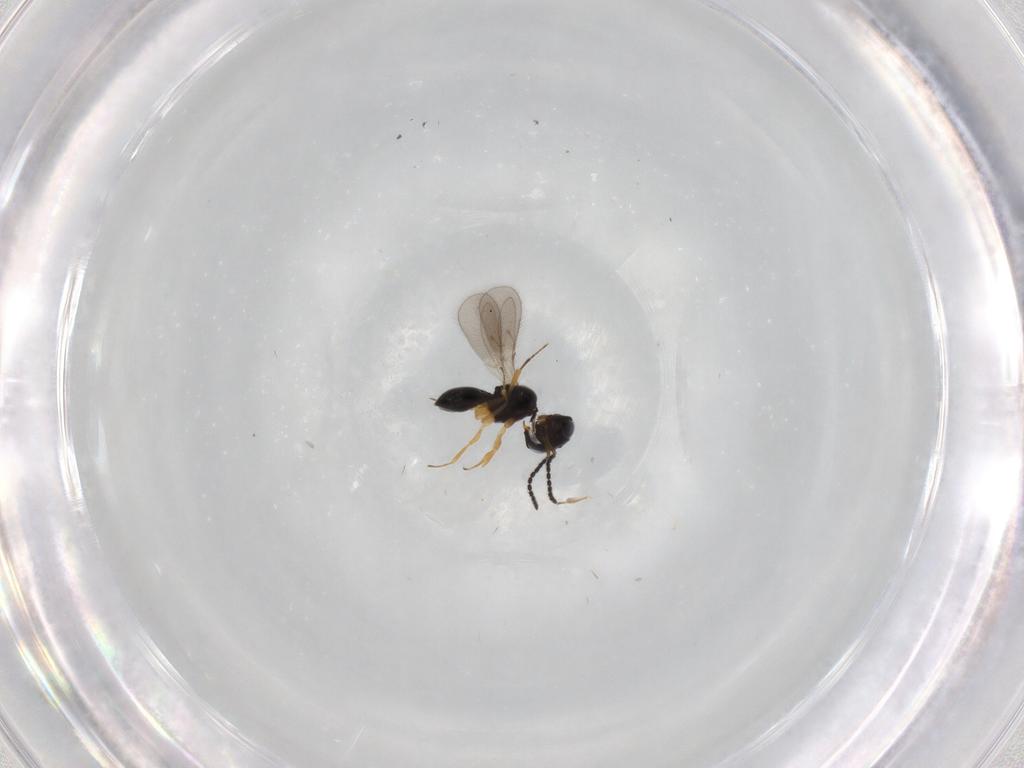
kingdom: Animalia
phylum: Arthropoda
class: Insecta
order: Hymenoptera
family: Scelionidae
